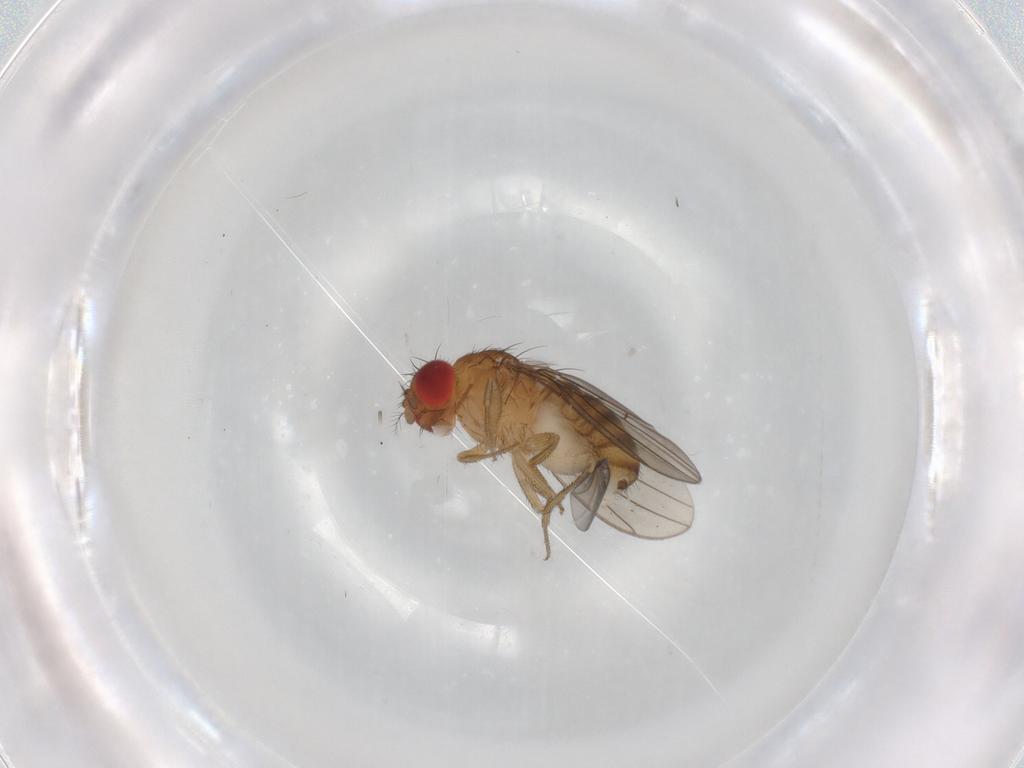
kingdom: Animalia
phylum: Arthropoda
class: Insecta
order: Diptera
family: Drosophilidae
